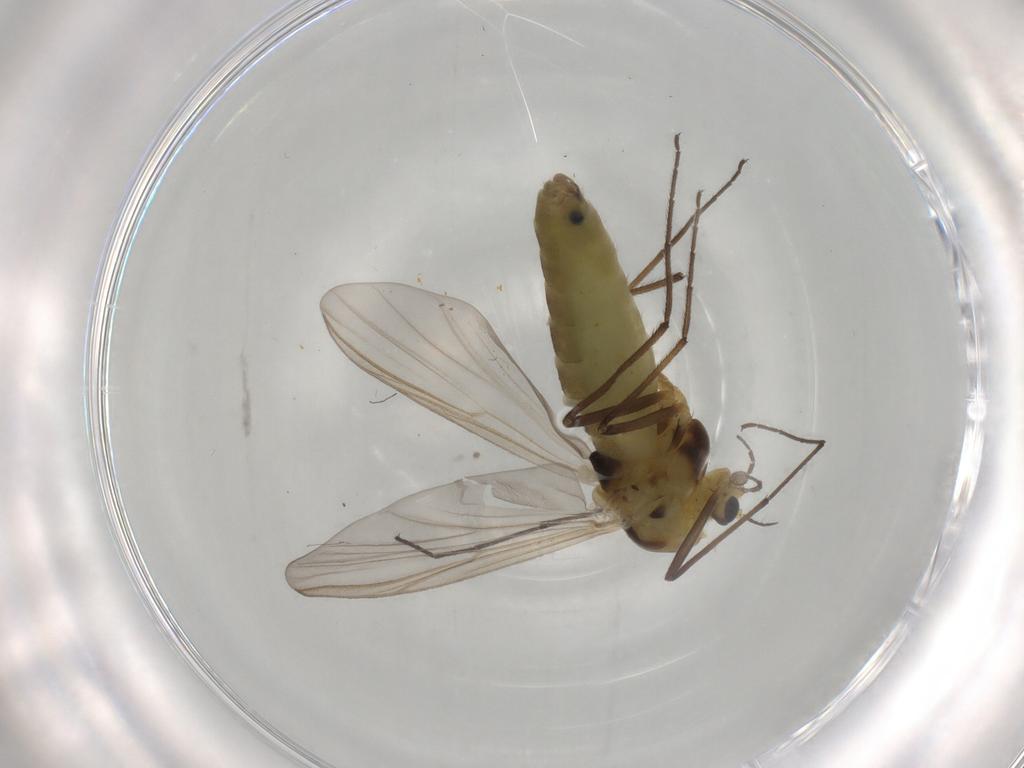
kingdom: Animalia
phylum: Arthropoda
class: Insecta
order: Diptera
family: Chironomidae
